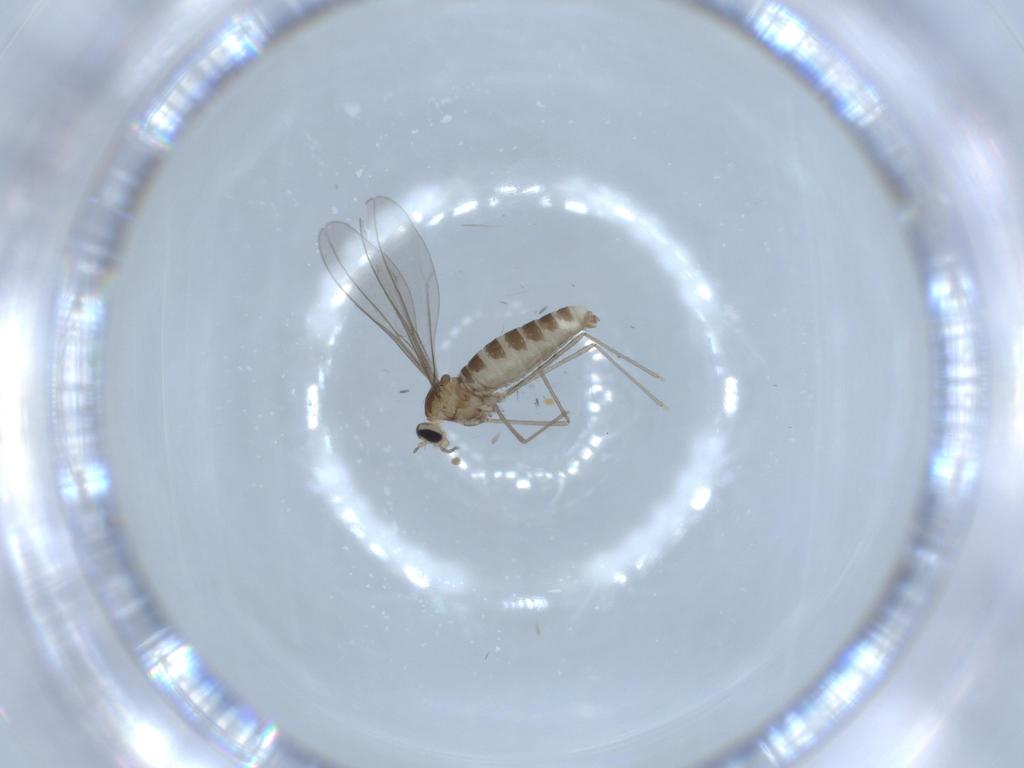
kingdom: Animalia
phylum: Arthropoda
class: Insecta
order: Diptera
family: Cecidomyiidae
